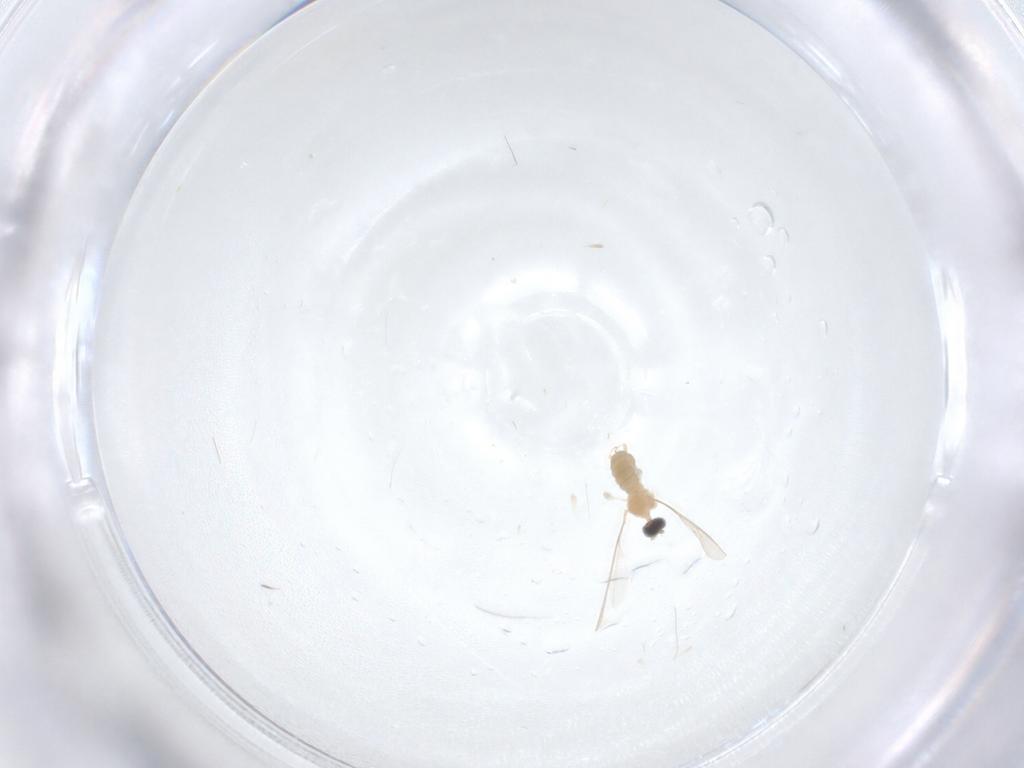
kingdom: Animalia
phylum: Arthropoda
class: Insecta
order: Diptera
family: Cecidomyiidae
